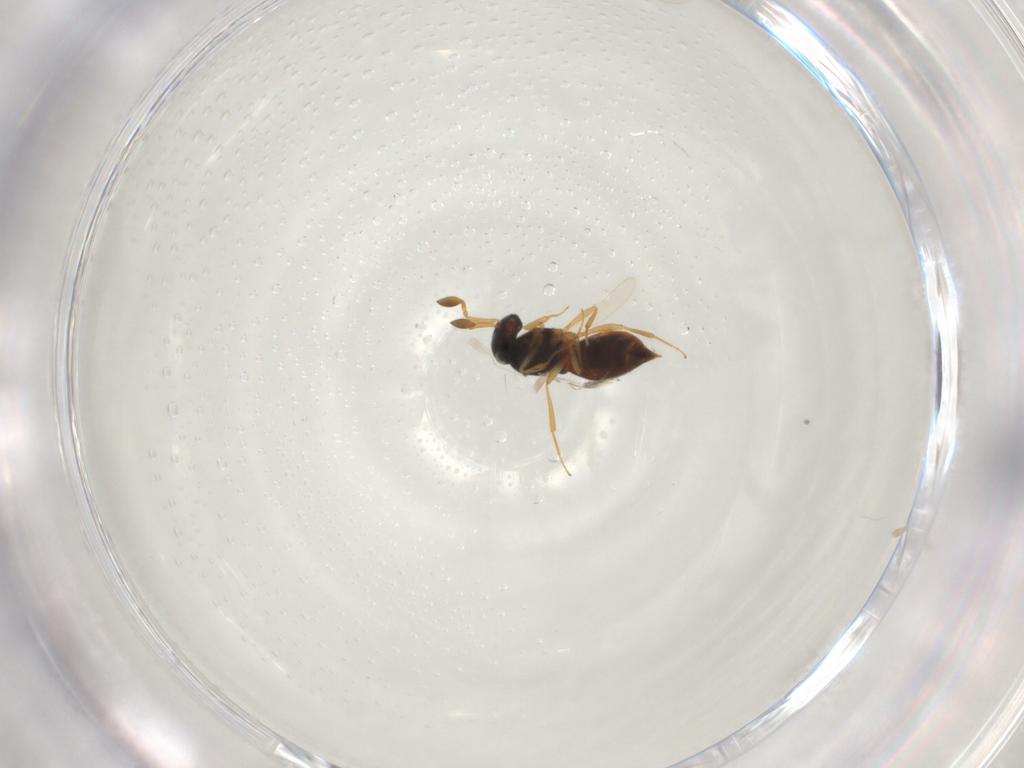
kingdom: Animalia
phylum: Arthropoda
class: Insecta
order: Hymenoptera
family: Scelionidae
